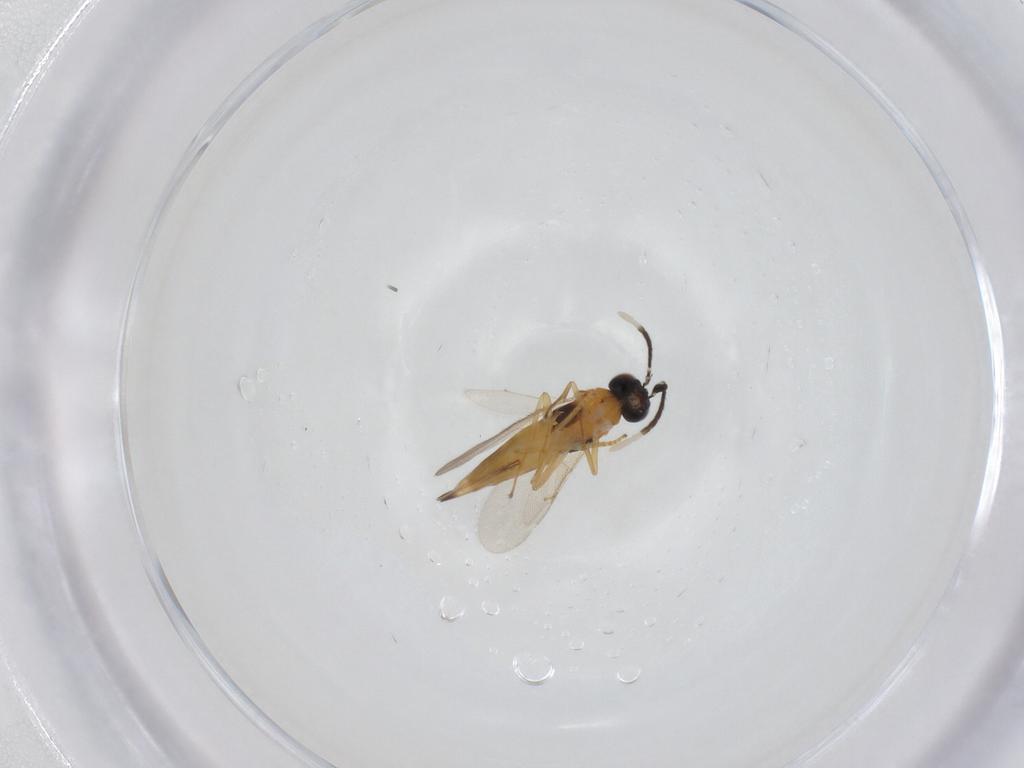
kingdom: Animalia
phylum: Arthropoda
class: Insecta
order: Hymenoptera
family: Encyrtidae
